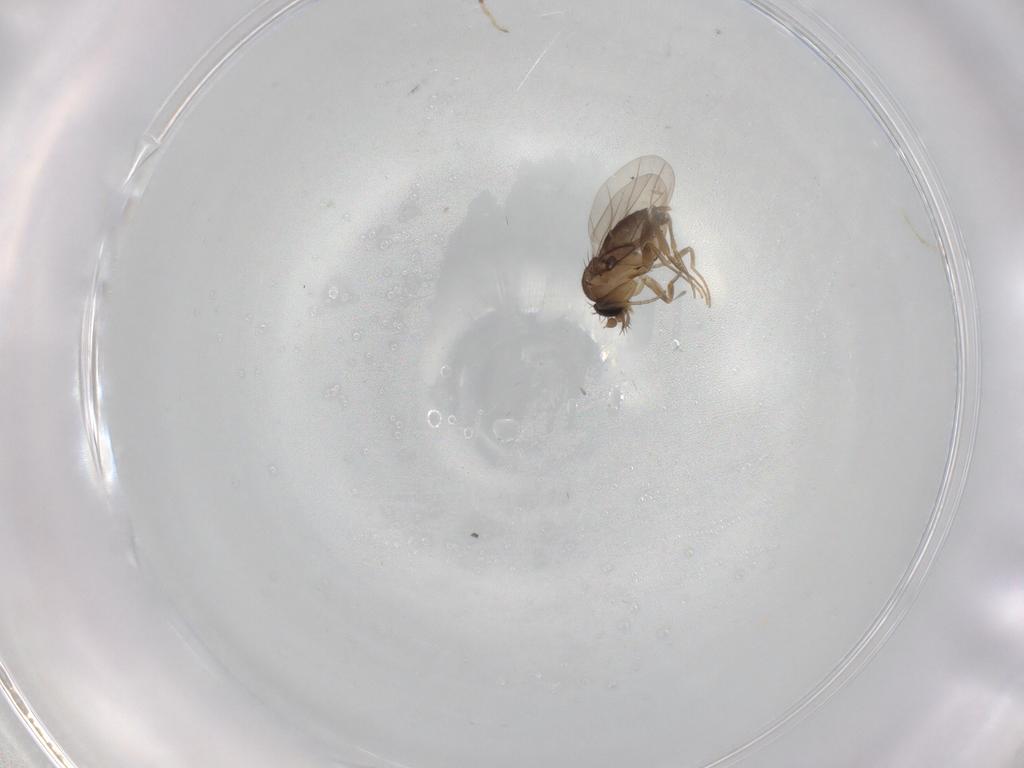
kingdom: Animalia
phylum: Arthropoda
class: Insecta
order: Diptera
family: Phoridae
